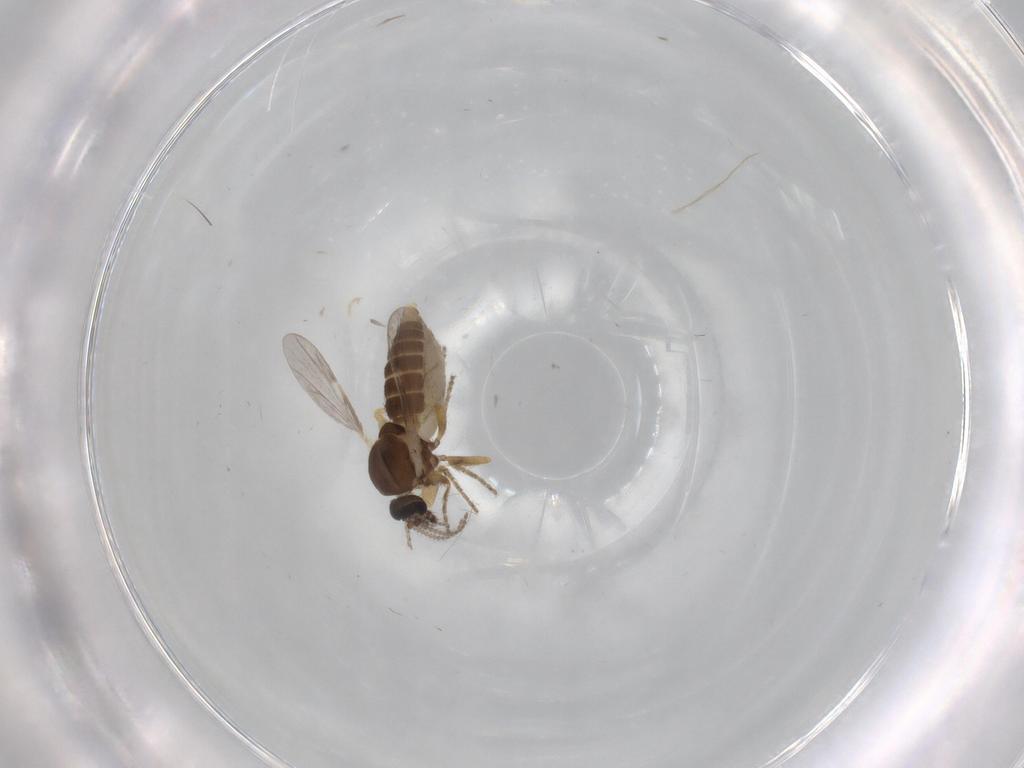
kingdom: Animalia
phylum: Arthropoda
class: Insecta
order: Diptera
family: Ceratopogonidae
